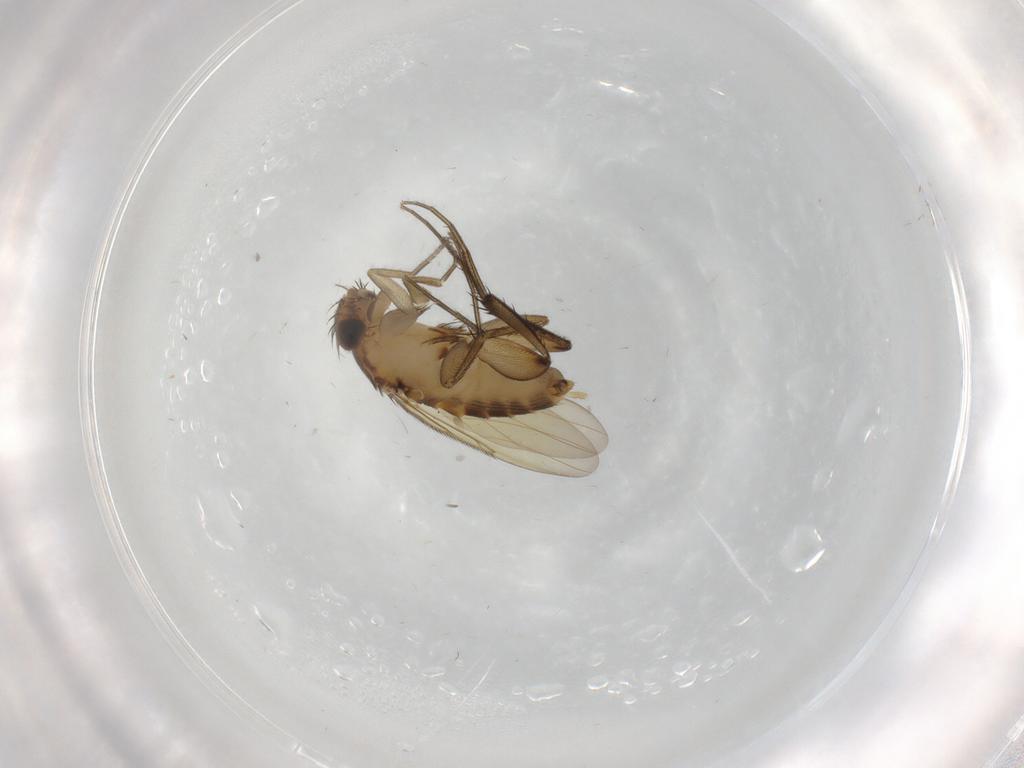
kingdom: Animalia
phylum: Arthropoda
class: Insecta
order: Diptera
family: Phoridae
